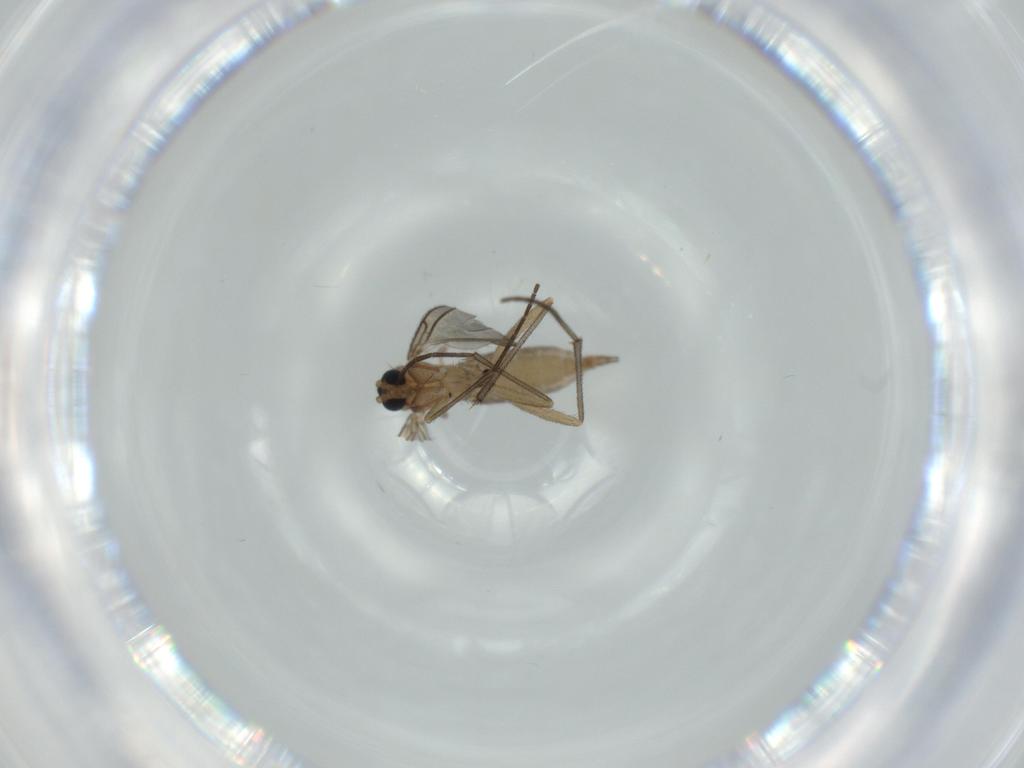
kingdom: Animalia
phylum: Arthropoda
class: Insecta
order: Diptera
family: Sciaridae
